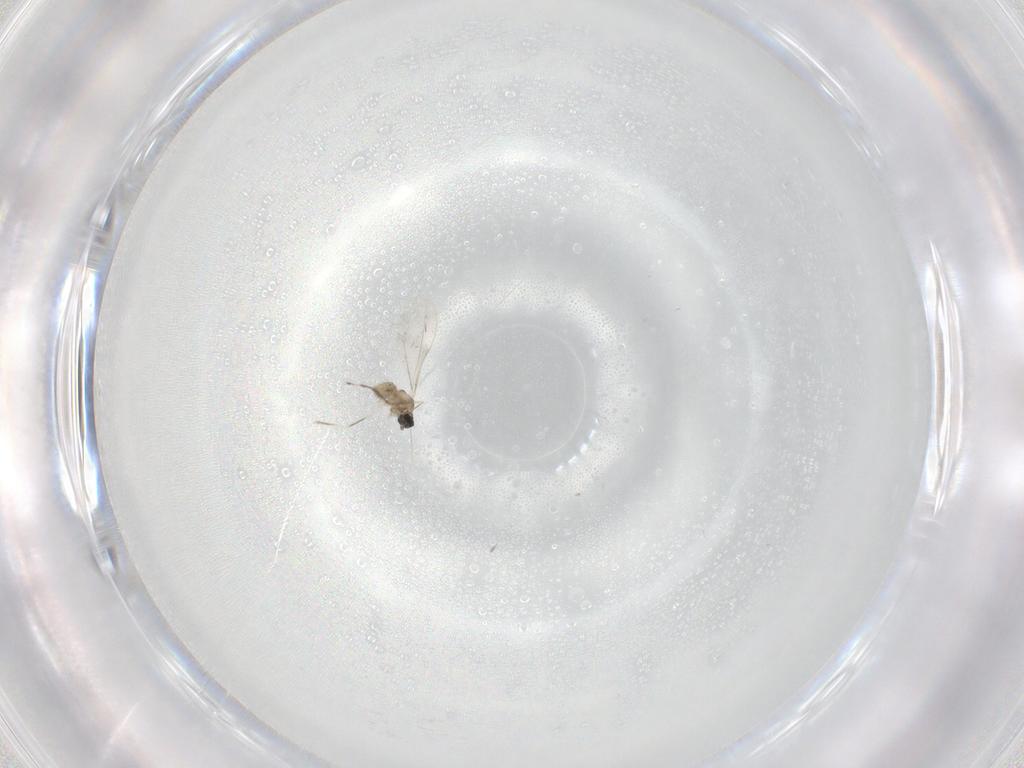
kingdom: Animalia
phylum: Arthropoda
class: Insecta
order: Diptera
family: Cecidomyiidae
